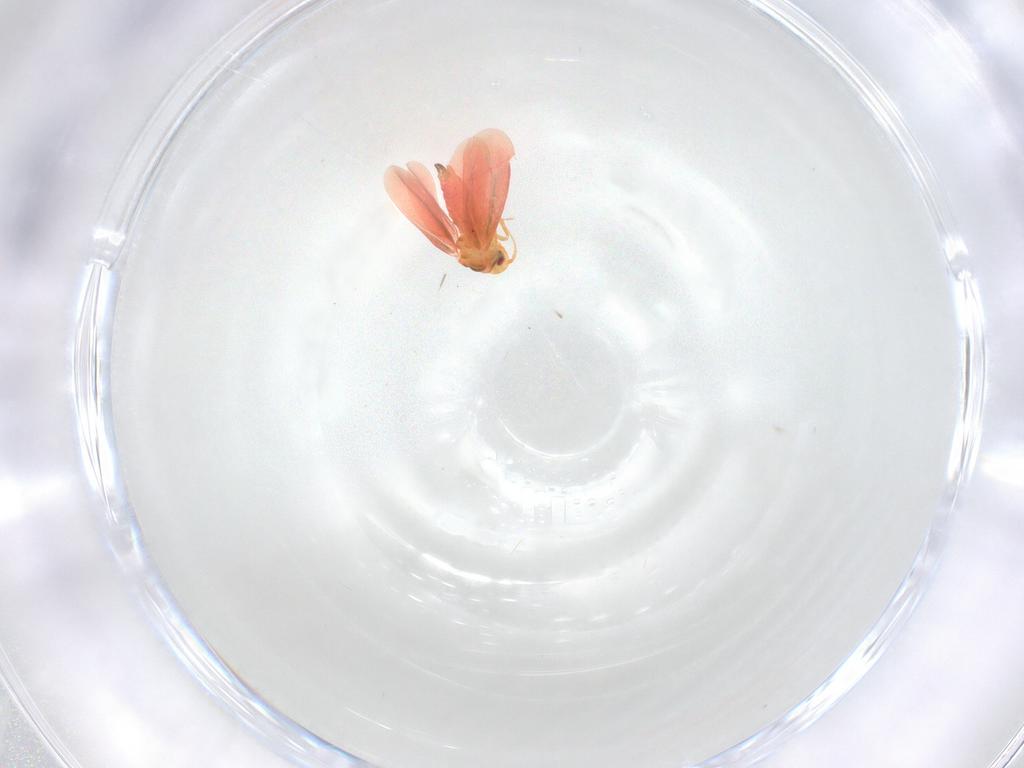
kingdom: Animalia
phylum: Arthropoda
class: Insecta
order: Hemiptera
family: Aleyrodidae
